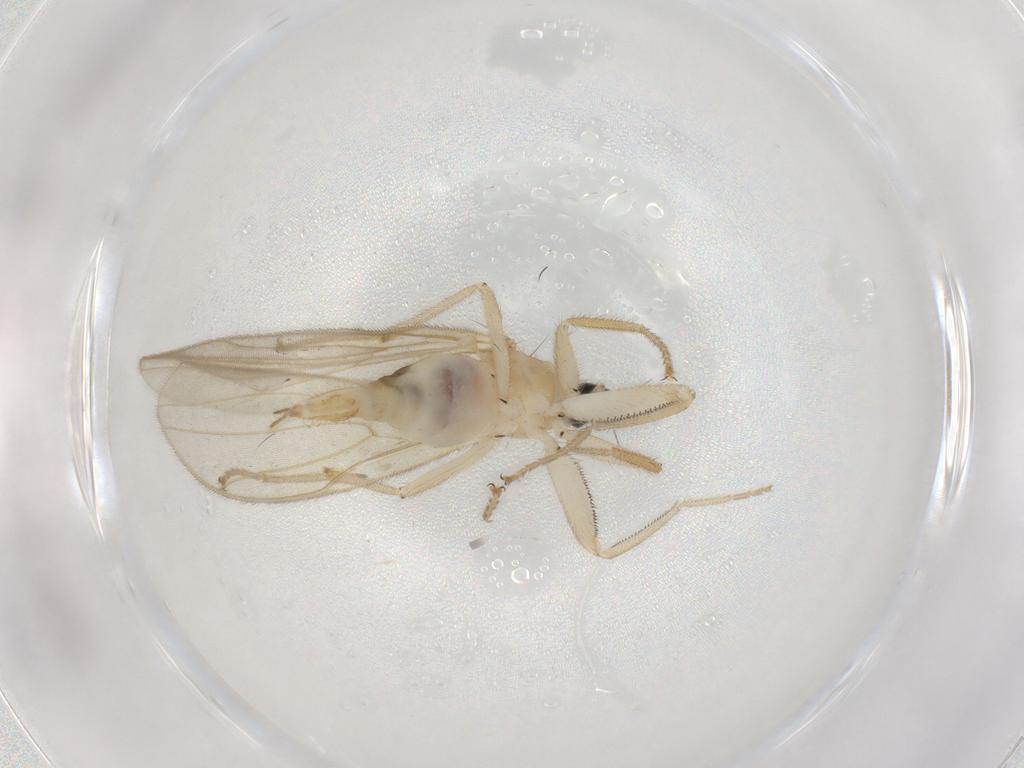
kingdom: Animalia
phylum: Arthropoda
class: Insecta
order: Diptera
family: Hybotidae
